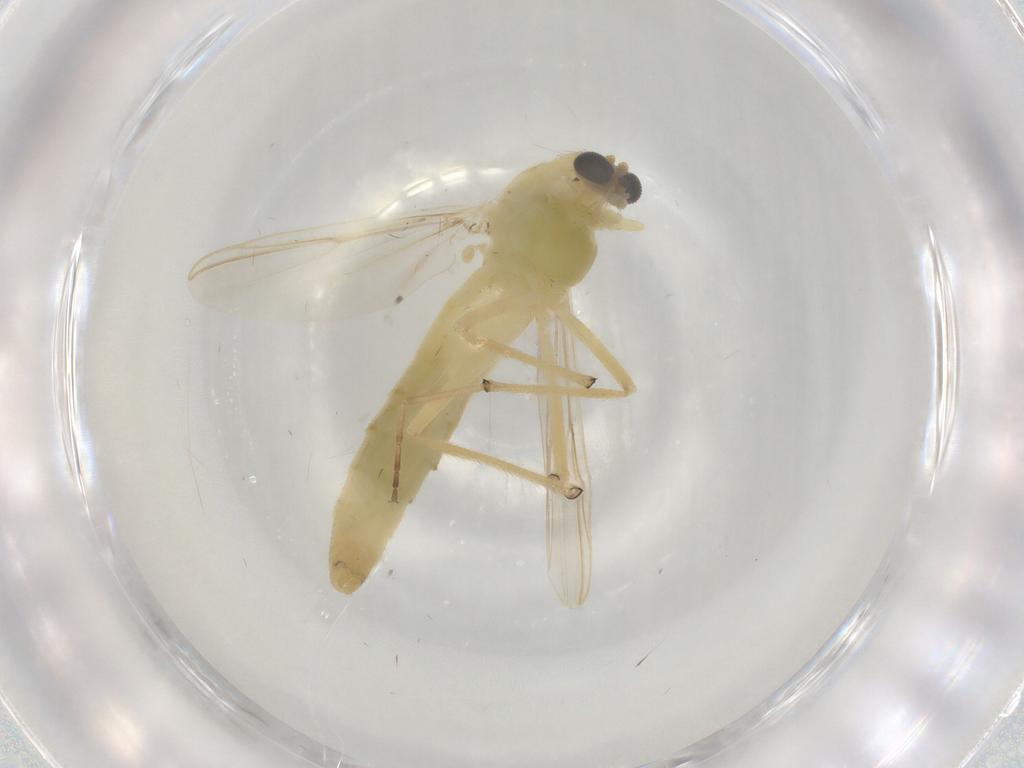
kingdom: Animalia
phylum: Arthropoda
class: Insecta
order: Diptera
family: Chironomidae
